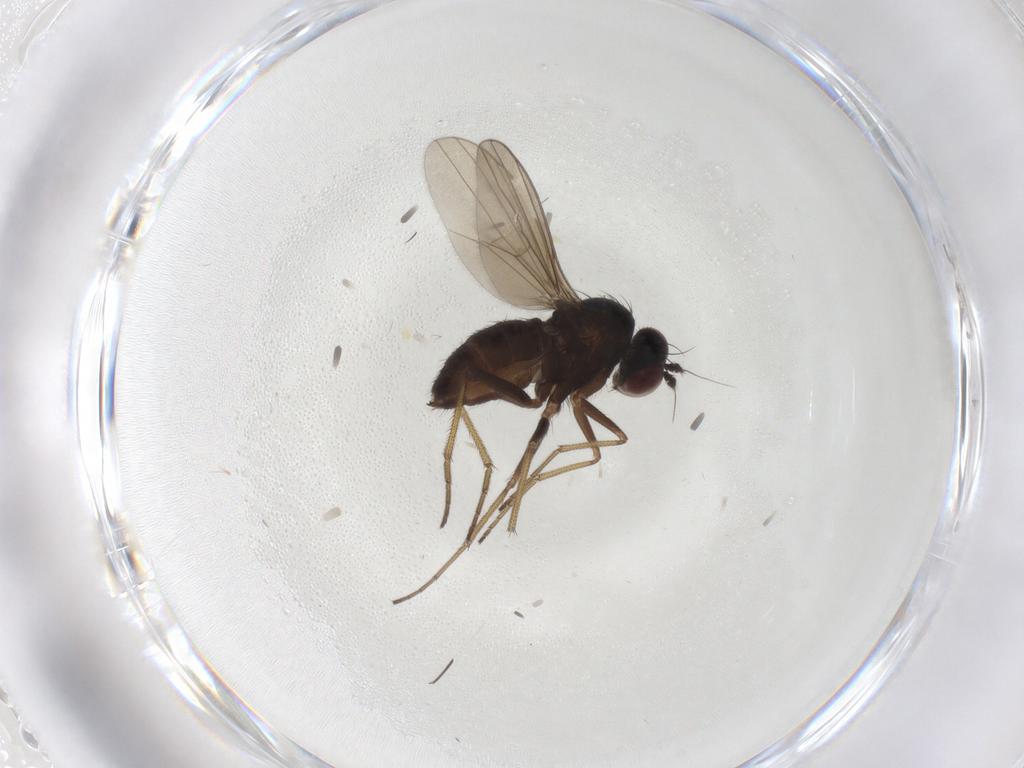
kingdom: Animalia
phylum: Arthropoda
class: Insecta
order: Diptera
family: Dolichopodidae
